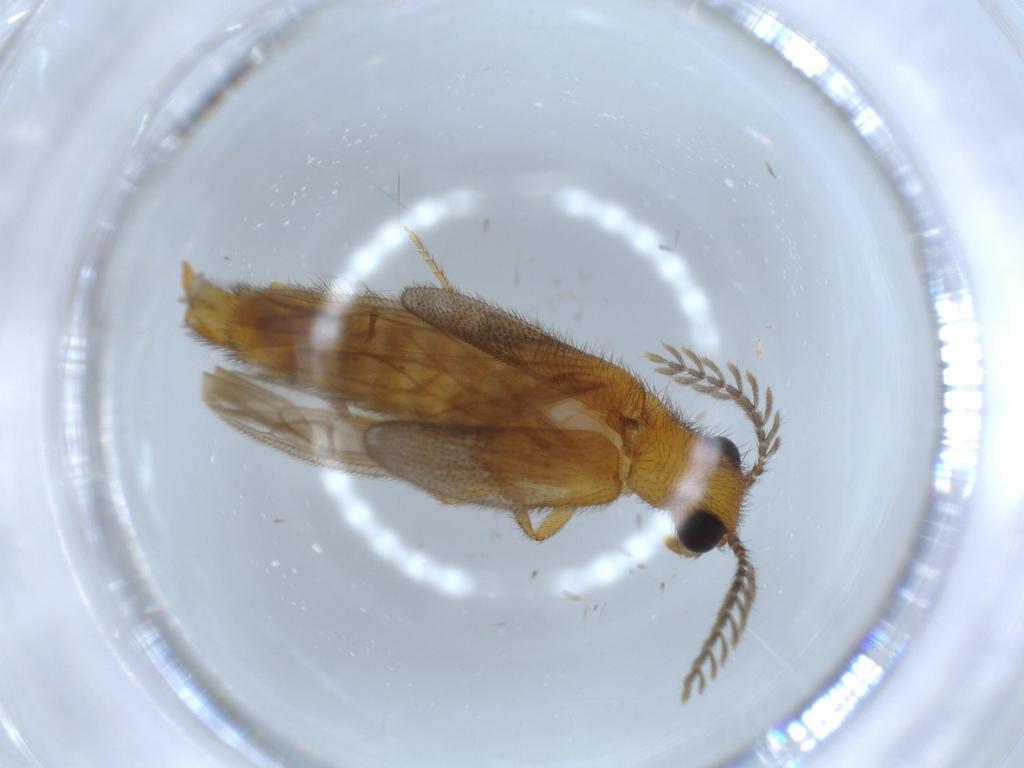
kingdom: Animalia
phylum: Arthropoda
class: Insecta
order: Coleoptera
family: Phengodidae
